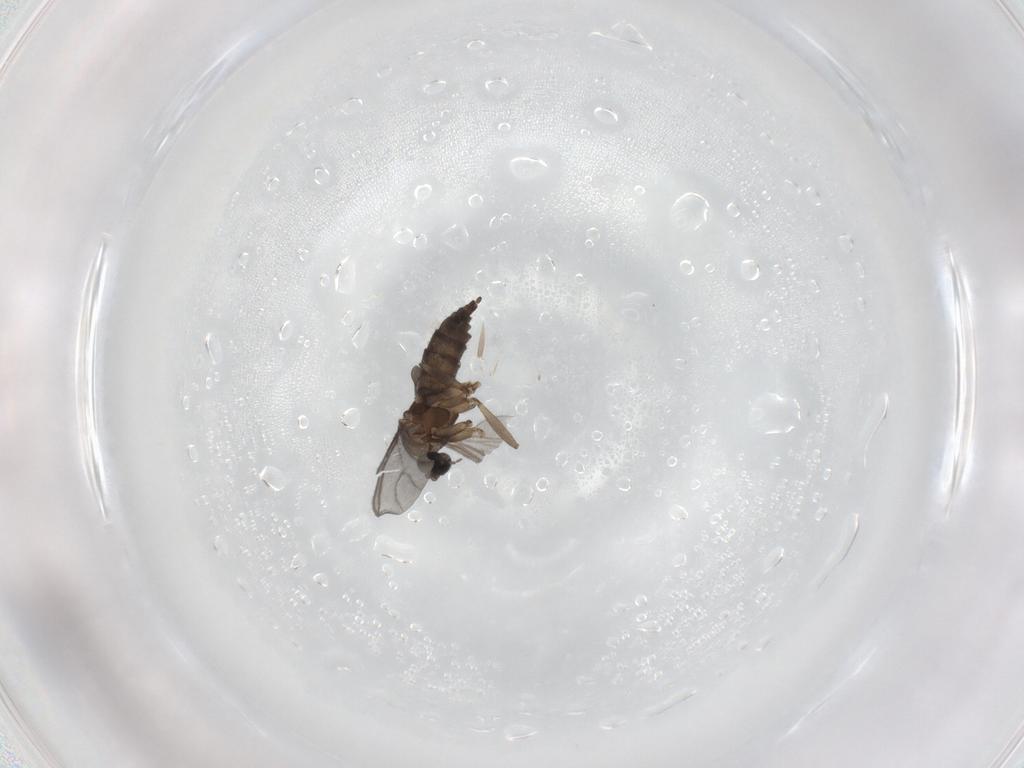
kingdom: Animalia
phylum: Arthropoda
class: Insecta
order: Diptera
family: Sciaridae
